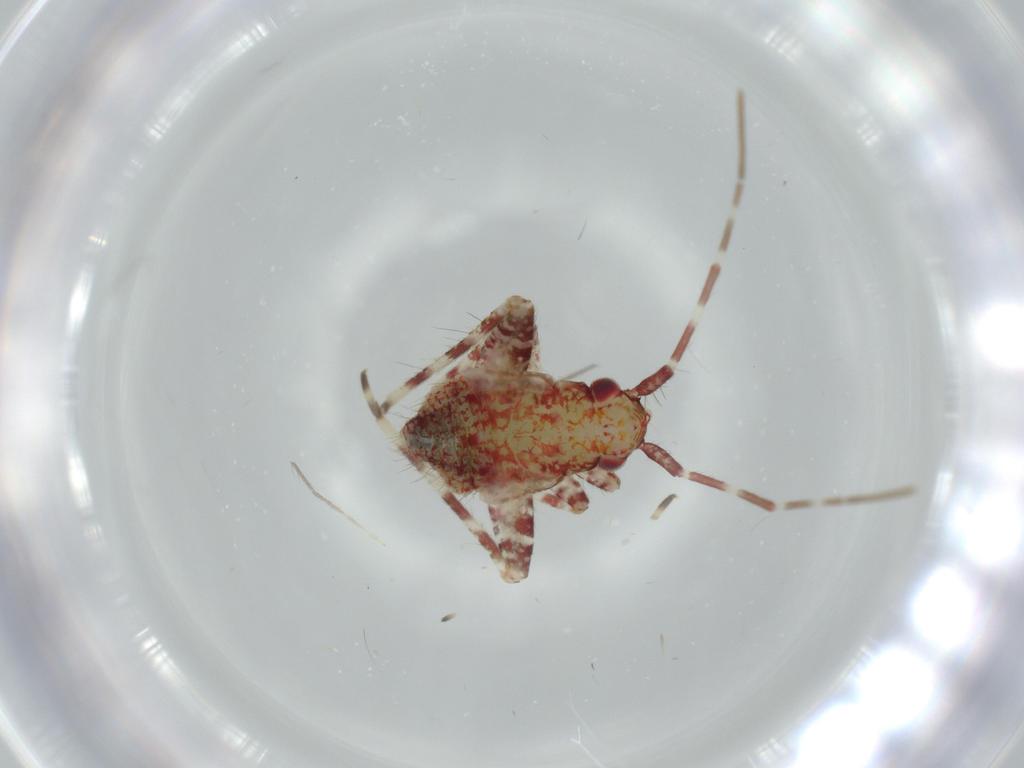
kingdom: Animalia
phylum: Arthropoda
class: Insecta
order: Hemiptera
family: Miridae
